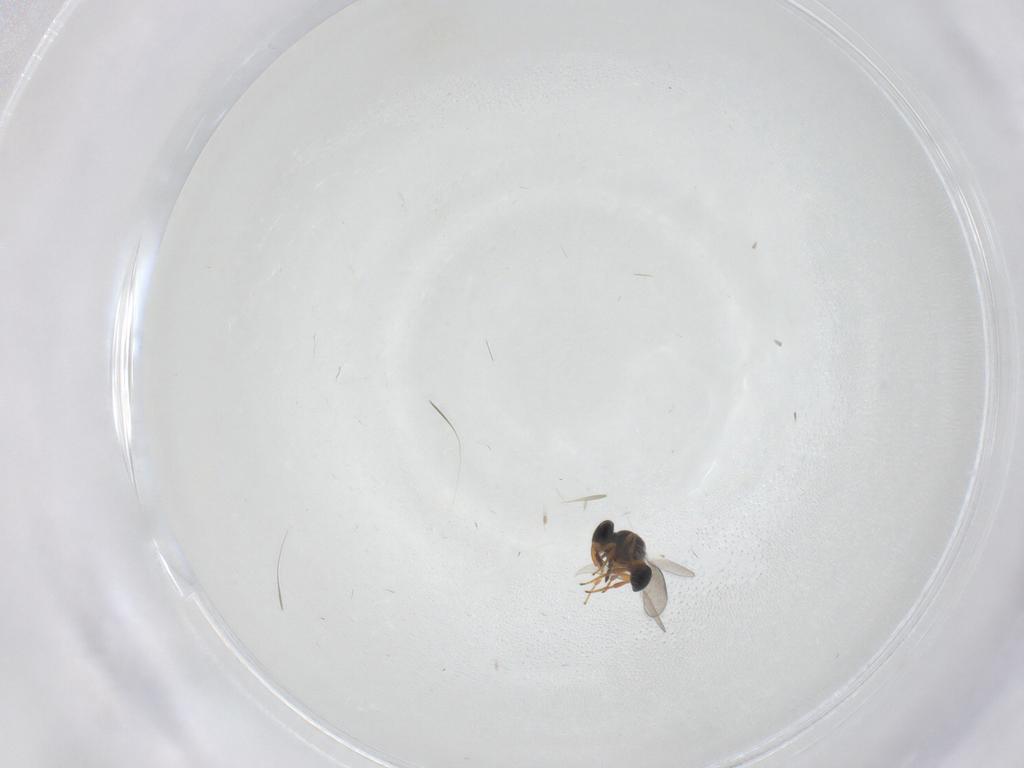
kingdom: Animalia
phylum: Arthropoda
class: Insecta
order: Hymenoptera
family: Platygastridae
